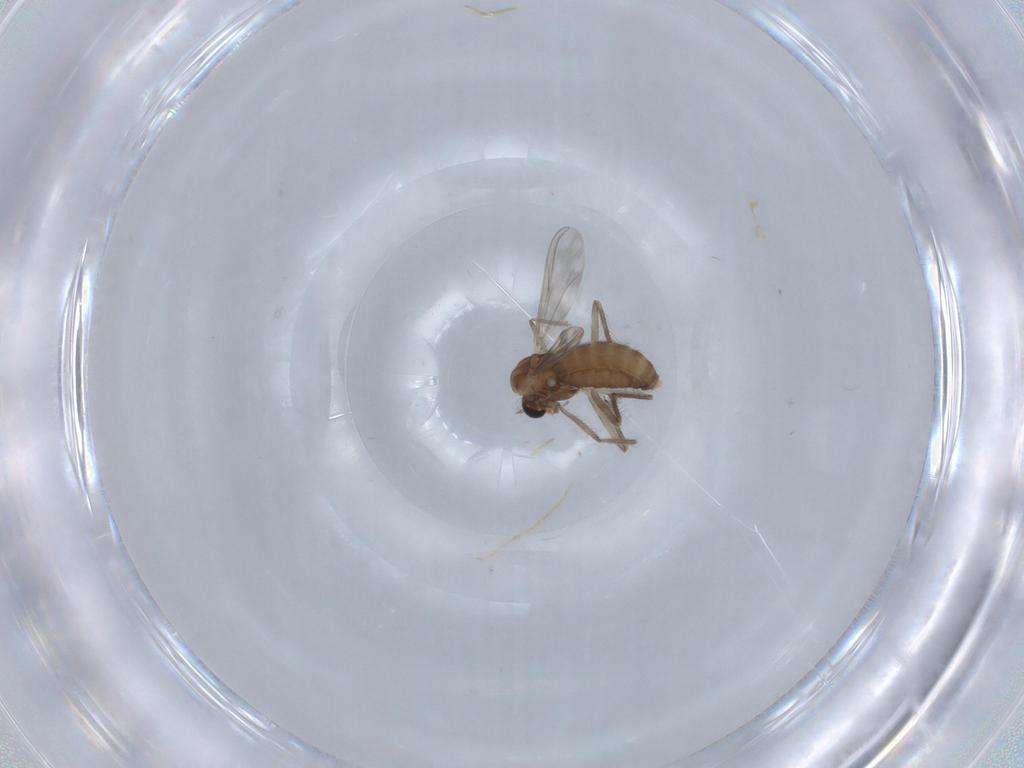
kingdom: Animalia
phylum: Arthropoda
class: Insecta
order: Diptera
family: Chironomidae
